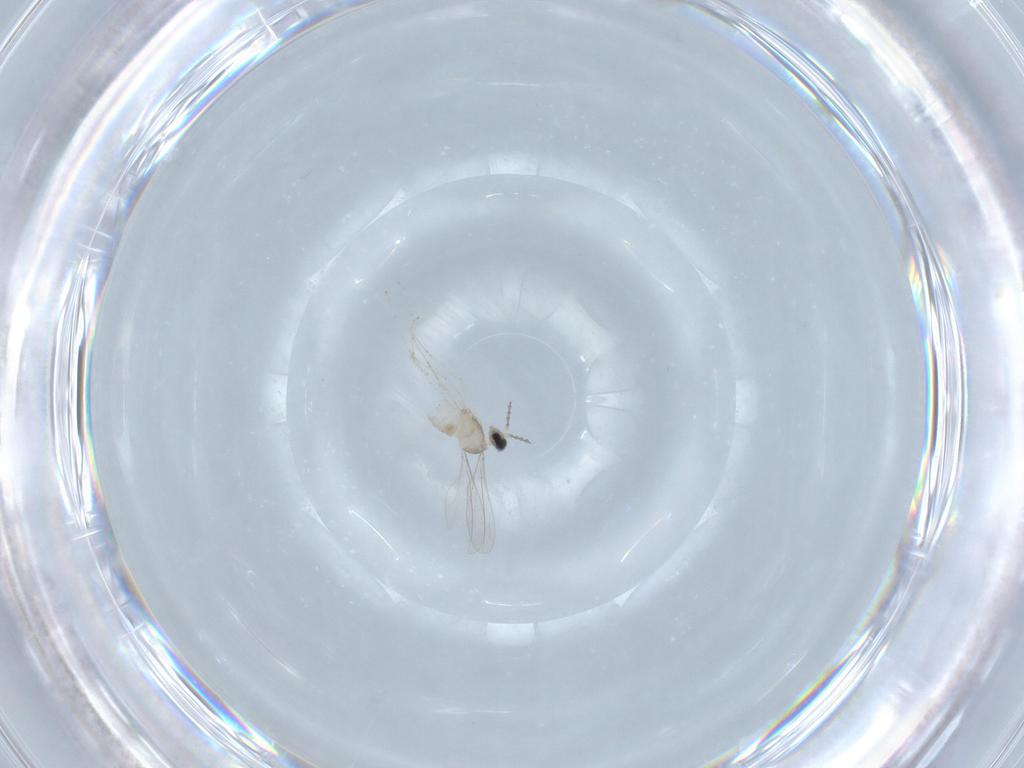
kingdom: Animalia
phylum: Arthropoda
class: Insecta
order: Diptera
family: Cecidomyiidae
